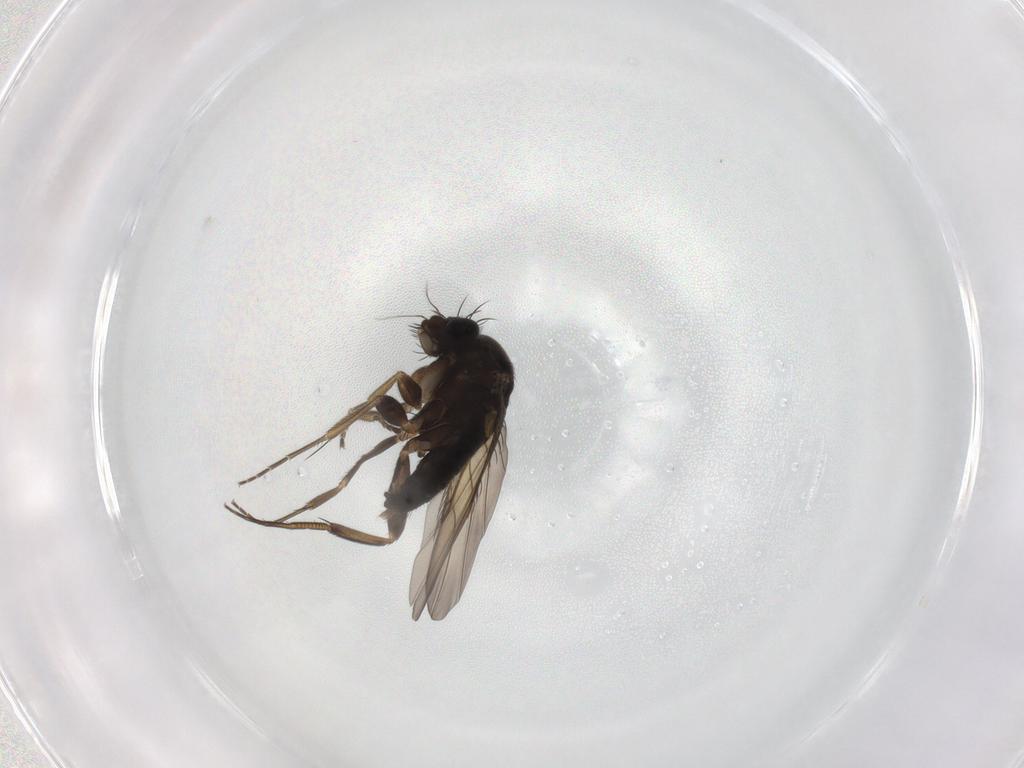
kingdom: Animalia
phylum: Arthropoda
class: Insecta
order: Diptera
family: Phoridae
